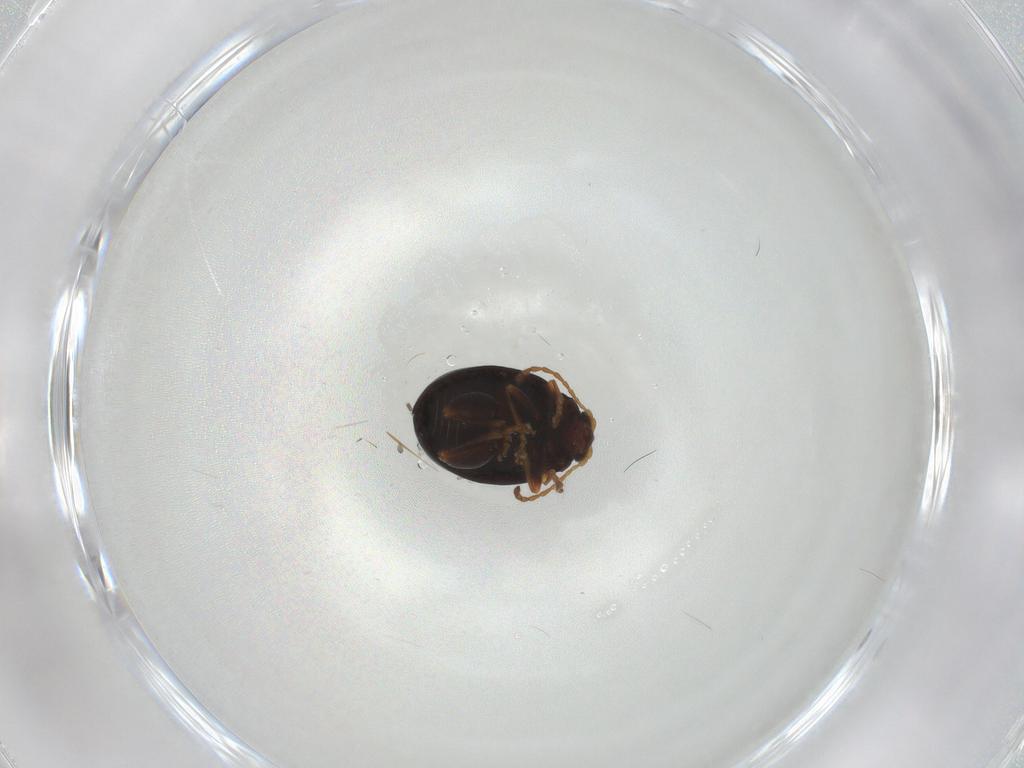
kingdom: Animalia
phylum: Arthropoda
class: Insecta
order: Coleoptera
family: Chrysomelidae
